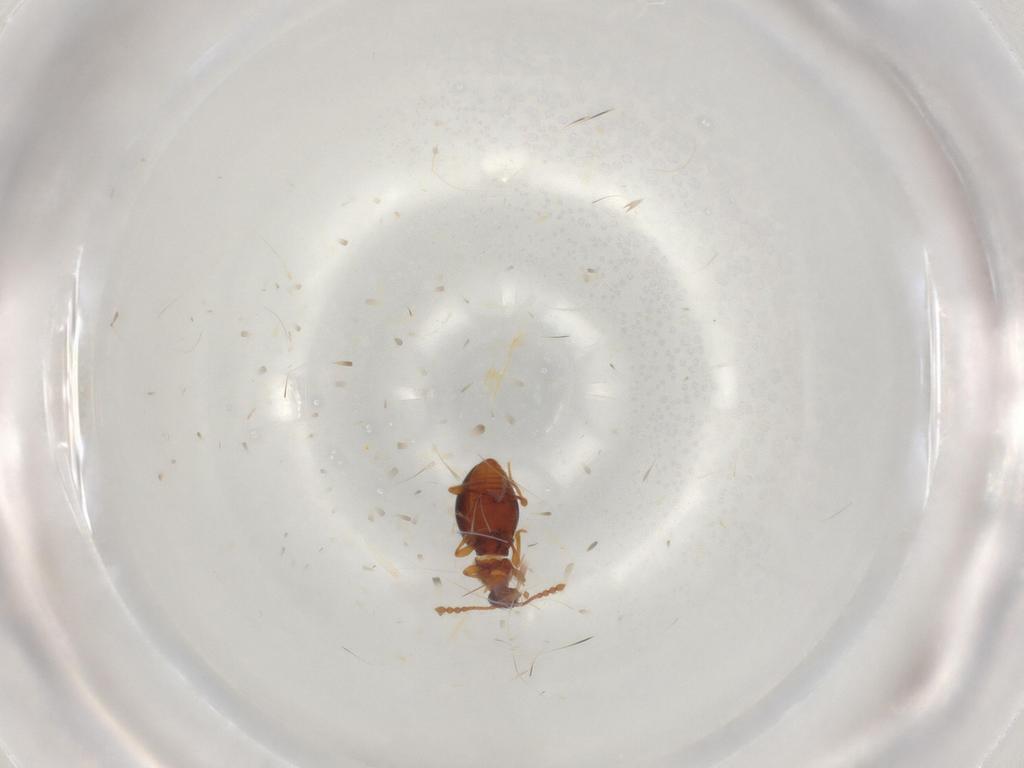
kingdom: Animalia
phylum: Arthropoda
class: Insecta
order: Coleoptera
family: Staphylinidae
